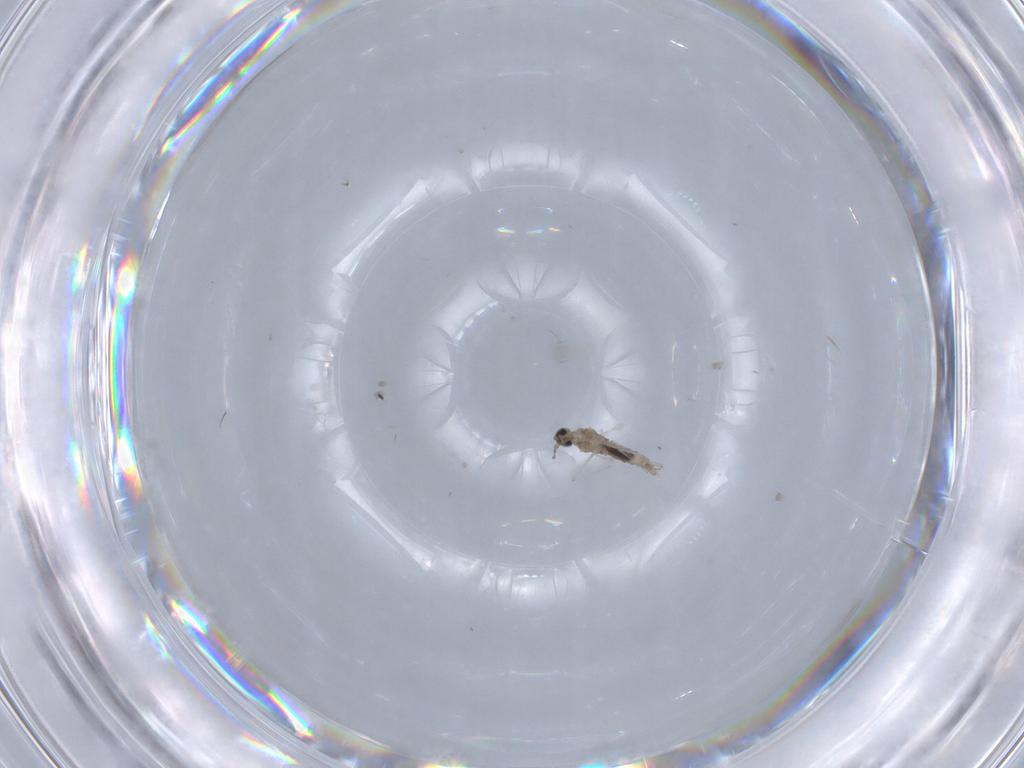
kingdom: Animalia
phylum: Arthropoda
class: Insecta
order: Diptera
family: Cecidomyiidae
